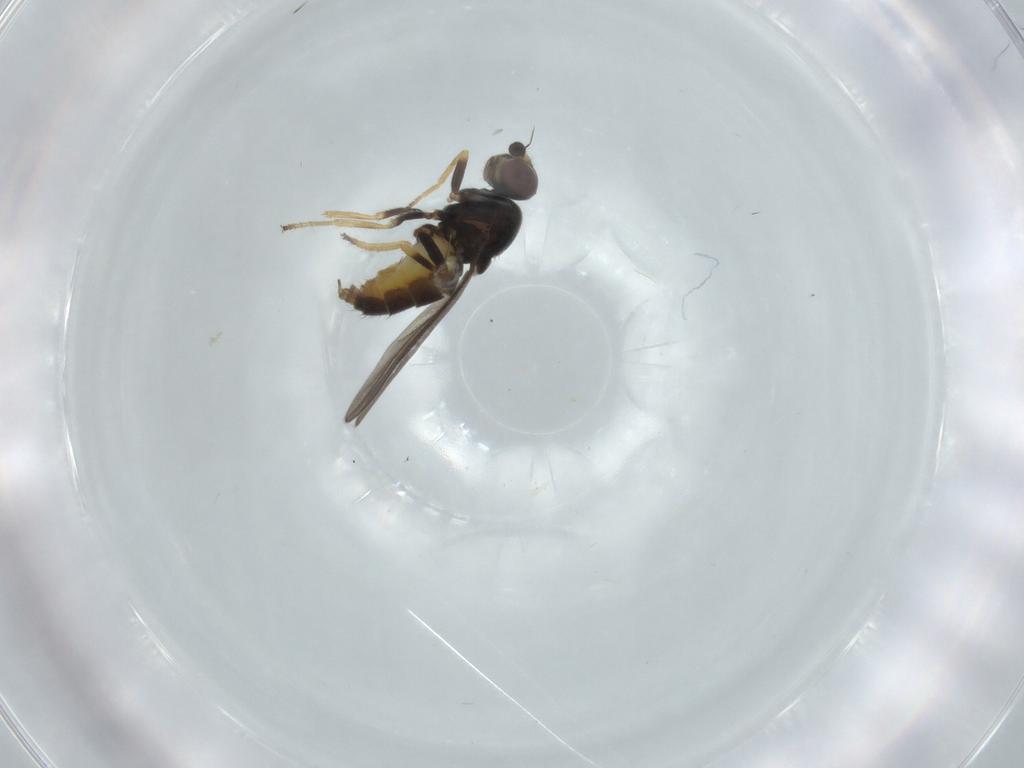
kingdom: Animalia
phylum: Arthropoda
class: Insecta
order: Diptera
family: Chloropidae
